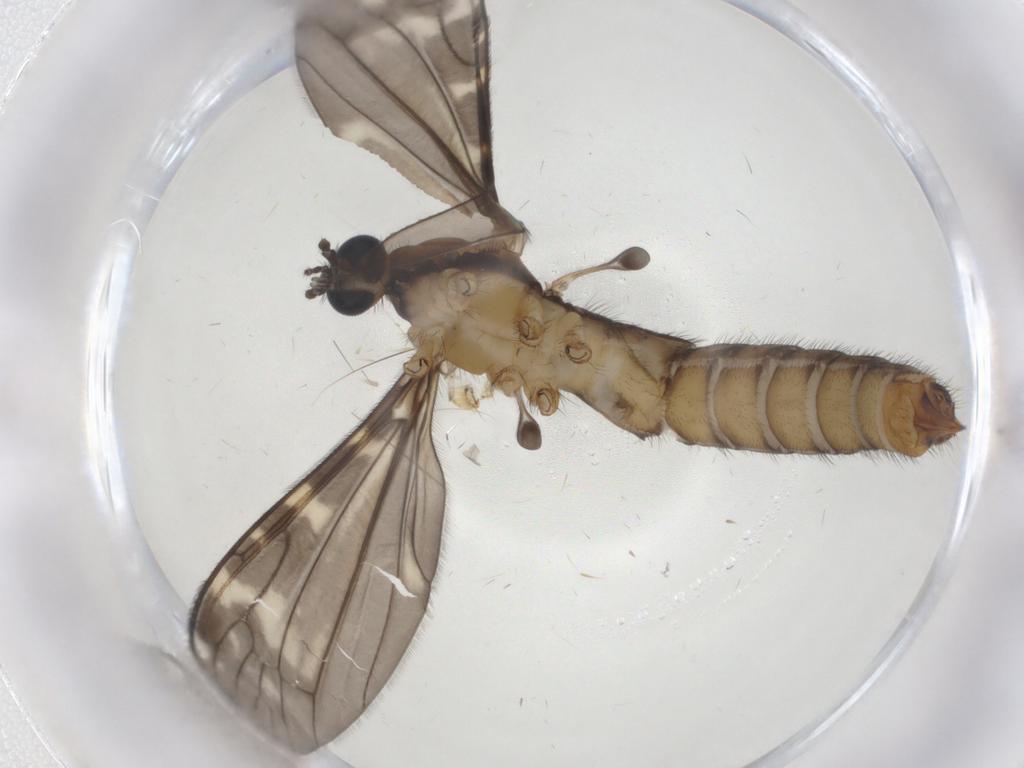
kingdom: Animalia
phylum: Arthropoda
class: Insecta
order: Diptera
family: Limoniidae
